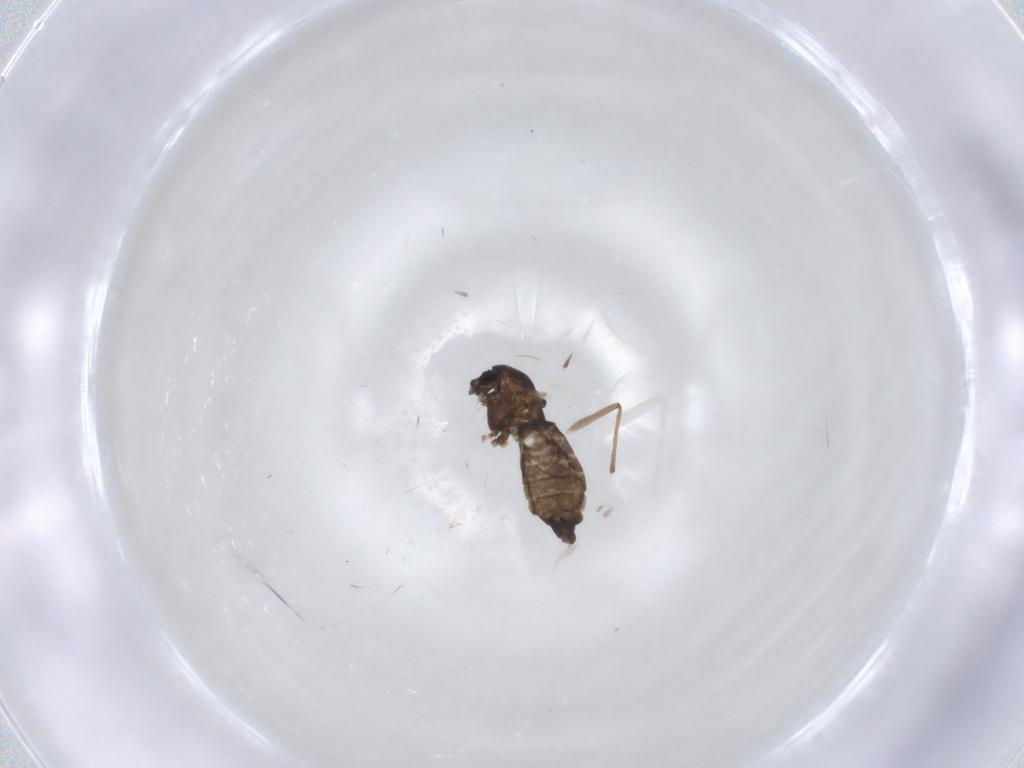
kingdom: Animalia
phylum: Arthropoda
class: Insecta
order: Diptera
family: Chironomidae
